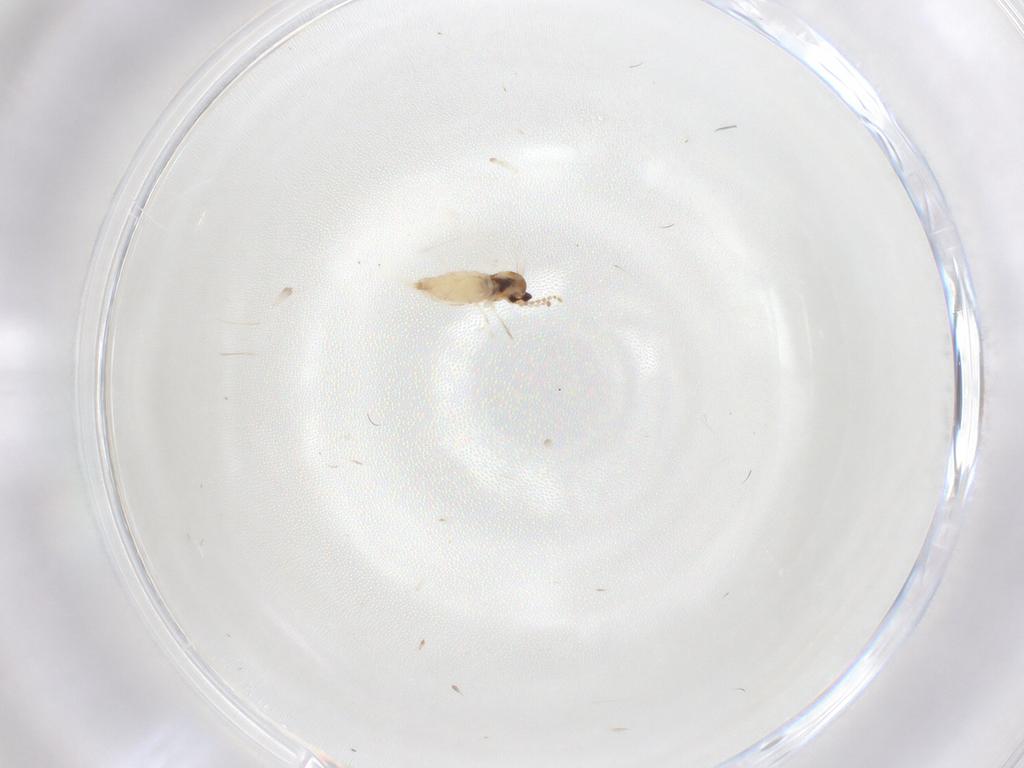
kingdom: Animalia
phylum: Arthropoda
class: Insecta
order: Diptera
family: Cecidomyiidae
